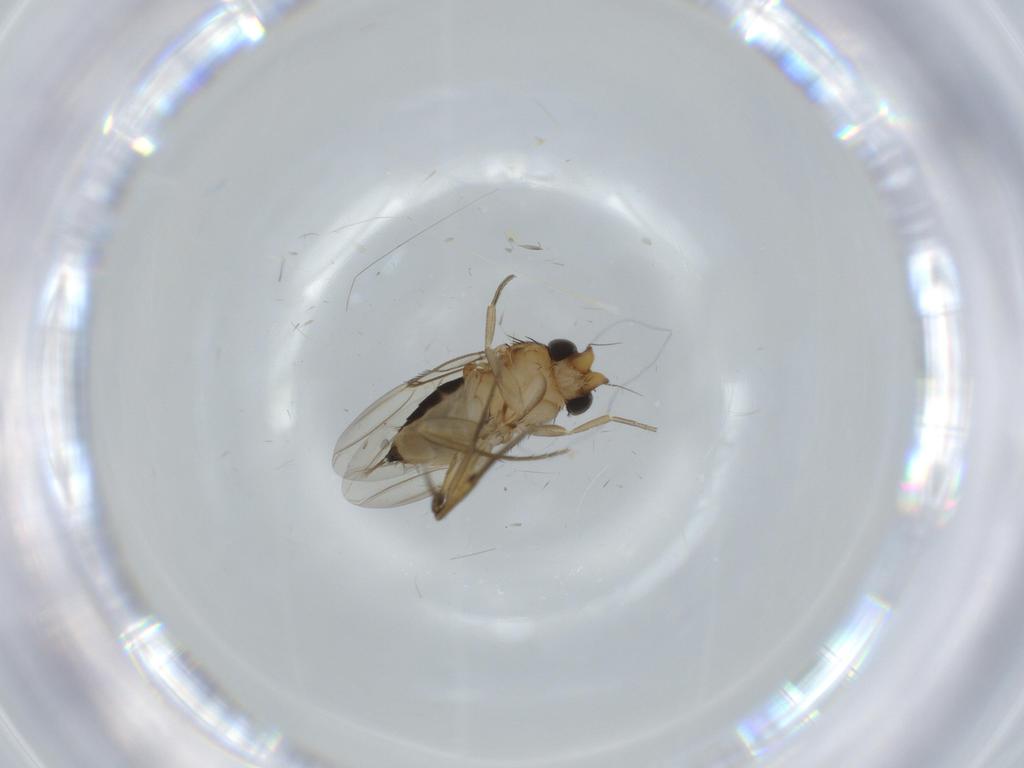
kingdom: Animalia
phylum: Arthropoda
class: Insecta
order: Diptera
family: Ceratopogonidae
